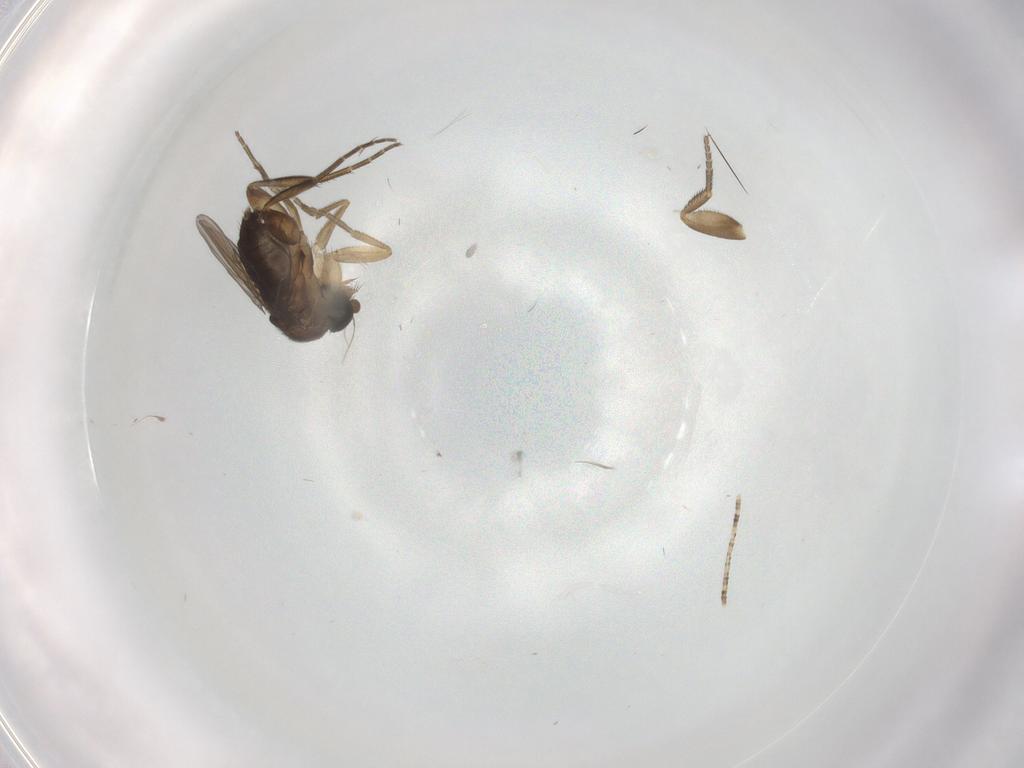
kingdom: Animalia
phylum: Arthropoda
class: Insecta
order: Diptera
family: Phoridae
